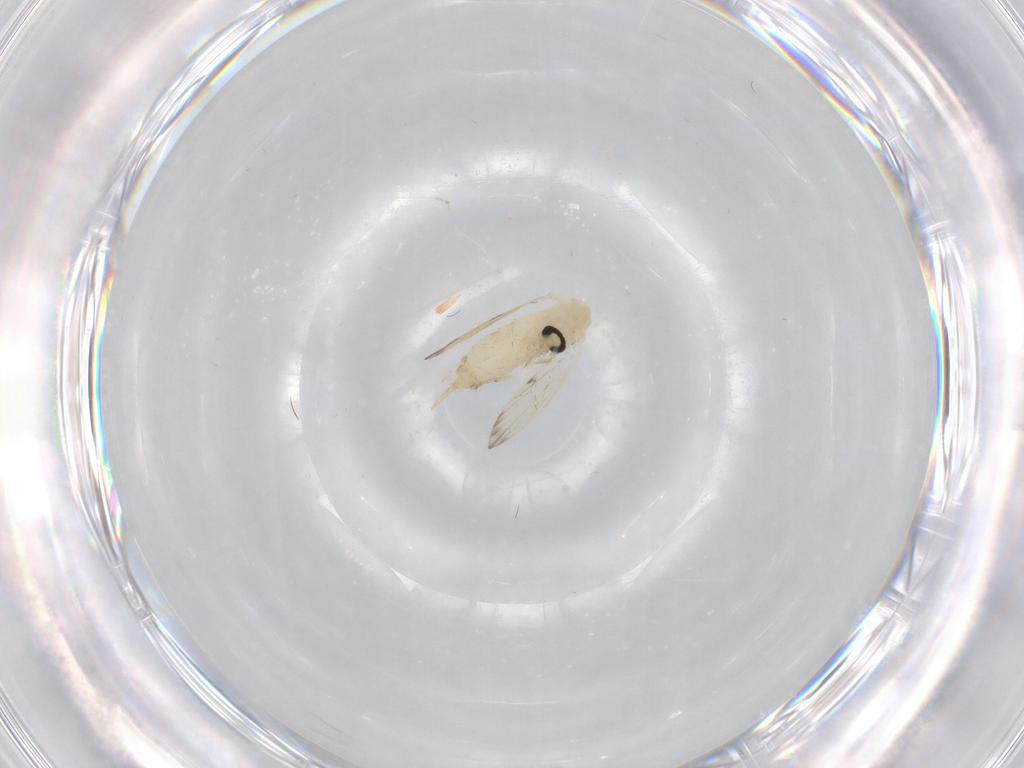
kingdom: Animalia
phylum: Arthropoda
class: Insecta
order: Diptera
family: Psychodidae
